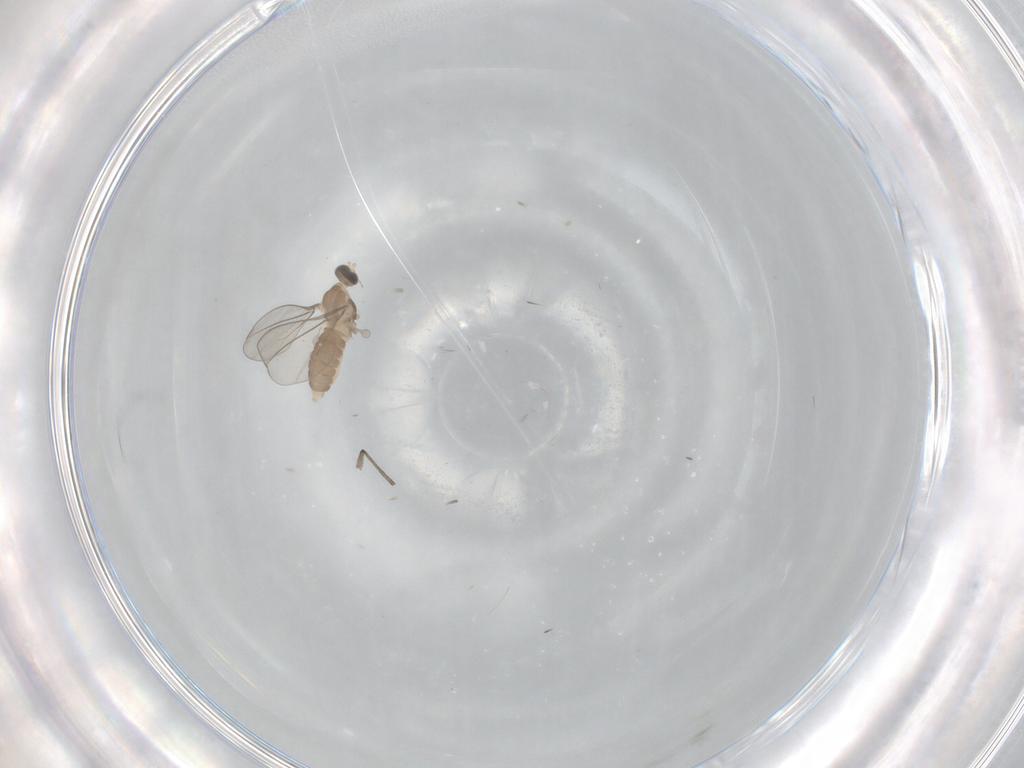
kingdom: Animalia
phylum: Arthropoda
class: Insecta
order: Diptera
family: Cecidomyiidae
